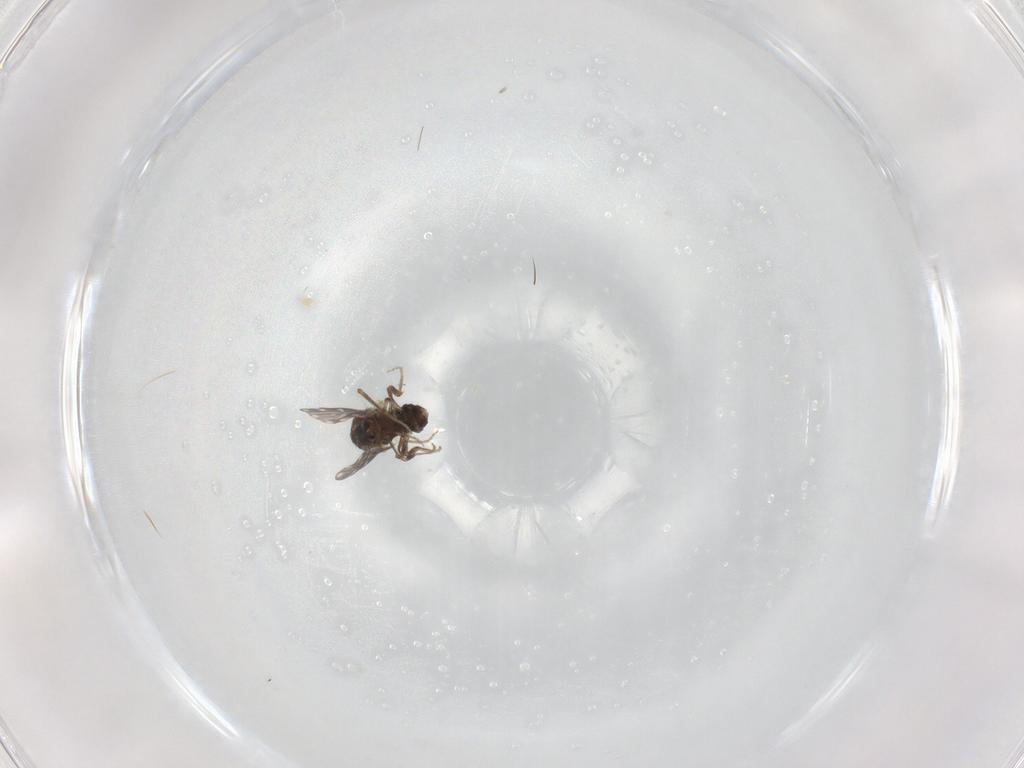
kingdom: Animalia
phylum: Arthropoda
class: Insecta
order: Diptera
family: Ceratopogonidae
